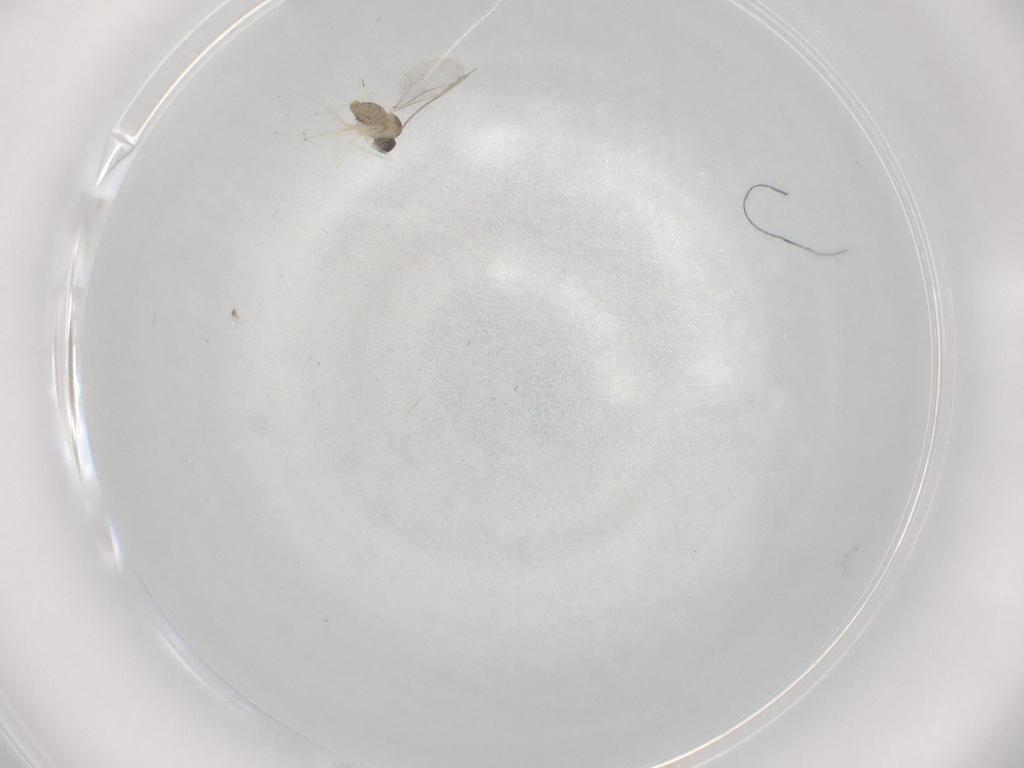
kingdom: Animalia
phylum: Arthropoda
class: Insecta
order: Diptera
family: Cecidomyiidae
